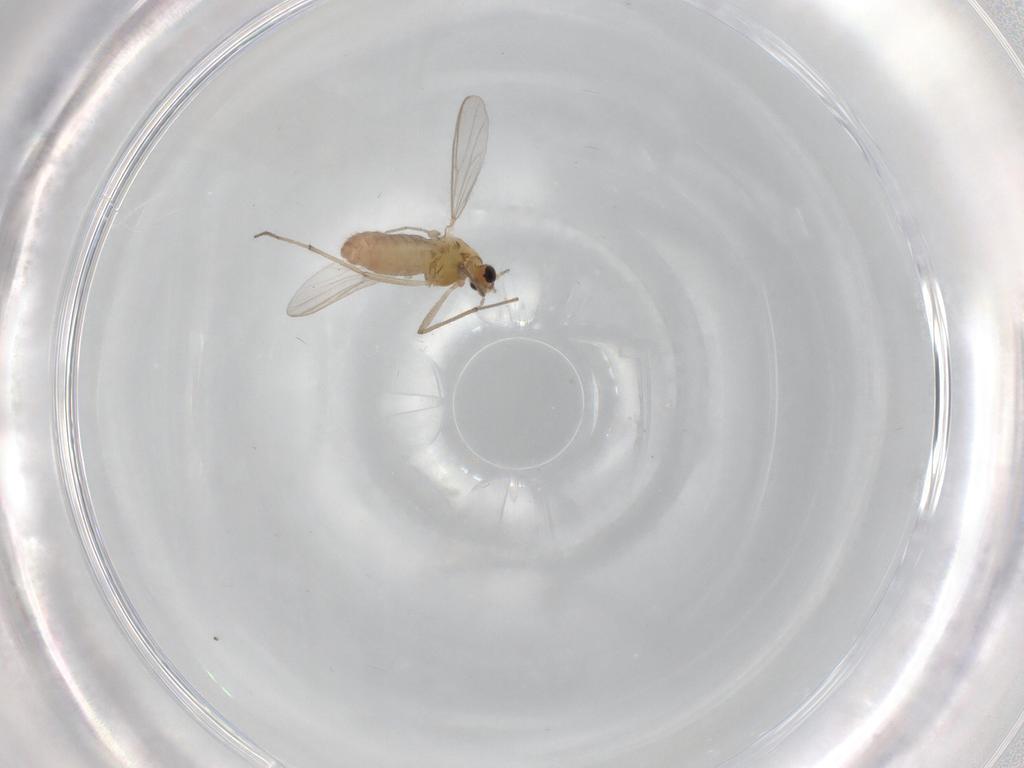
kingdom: Animalia
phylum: Arthropoda
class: Insecta
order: Diptera
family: Chironomidae
